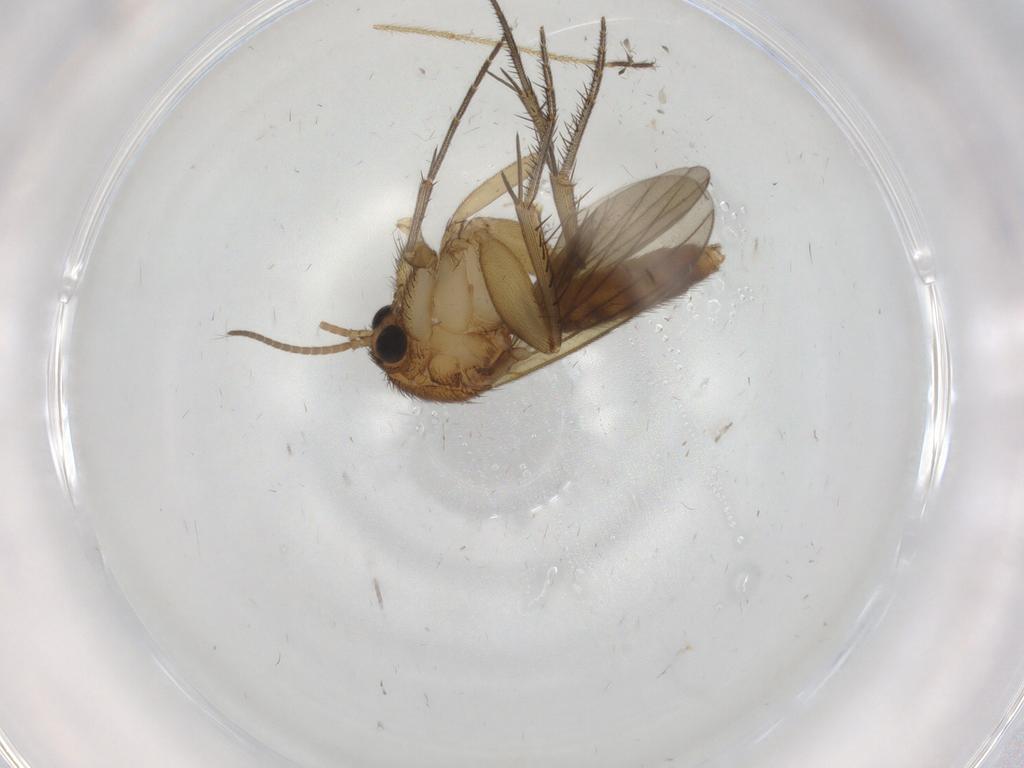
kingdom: Animalia
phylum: Arthropoda
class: Insecta
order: Diptera
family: Mycetophilidae
